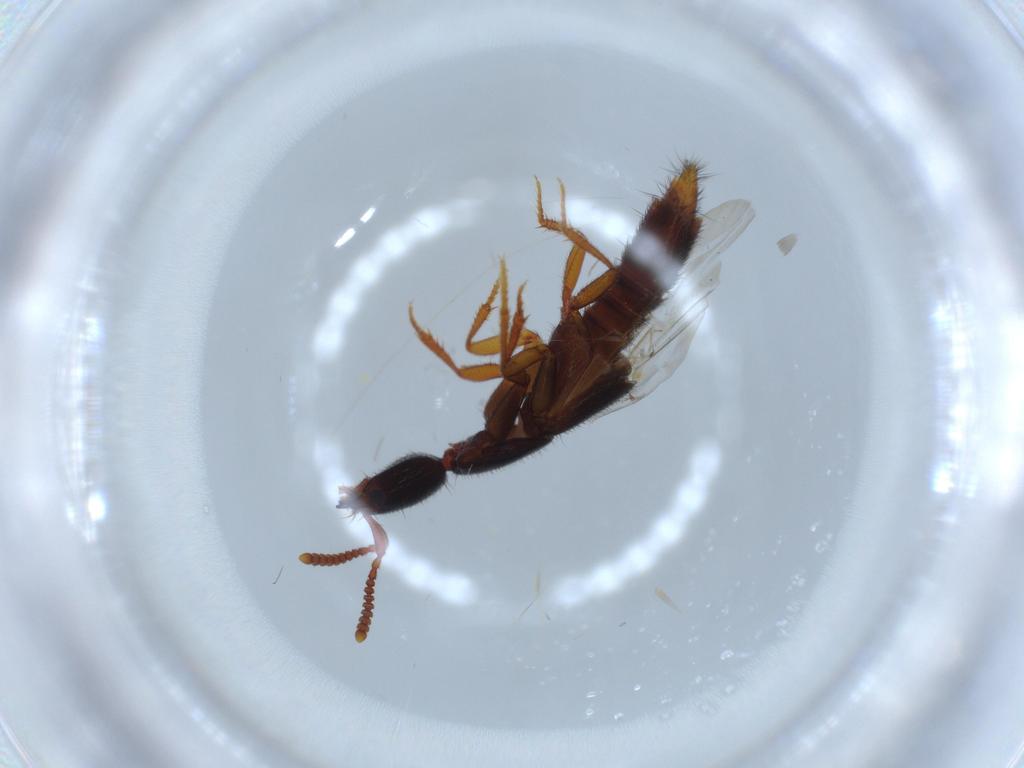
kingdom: Animalia
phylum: Arthropoda
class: Insecta
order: Coleoptera
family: Staphylinidae
